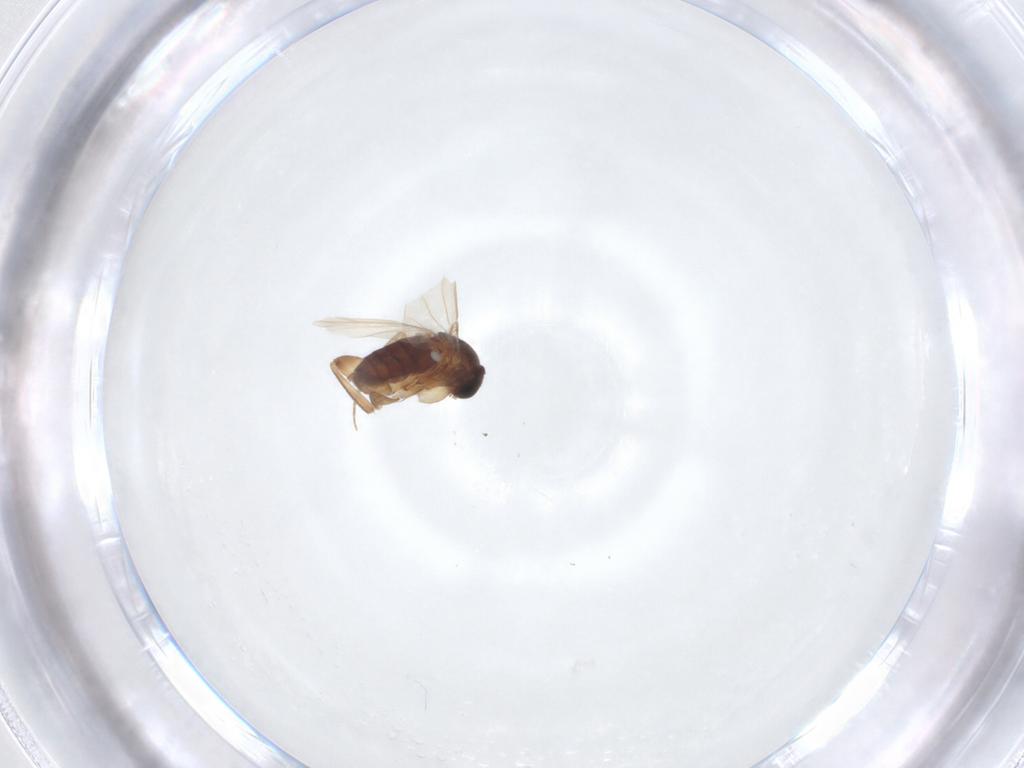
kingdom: Animalia
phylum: Arthropoda
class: Insecta
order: Diptera
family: Phoridae
